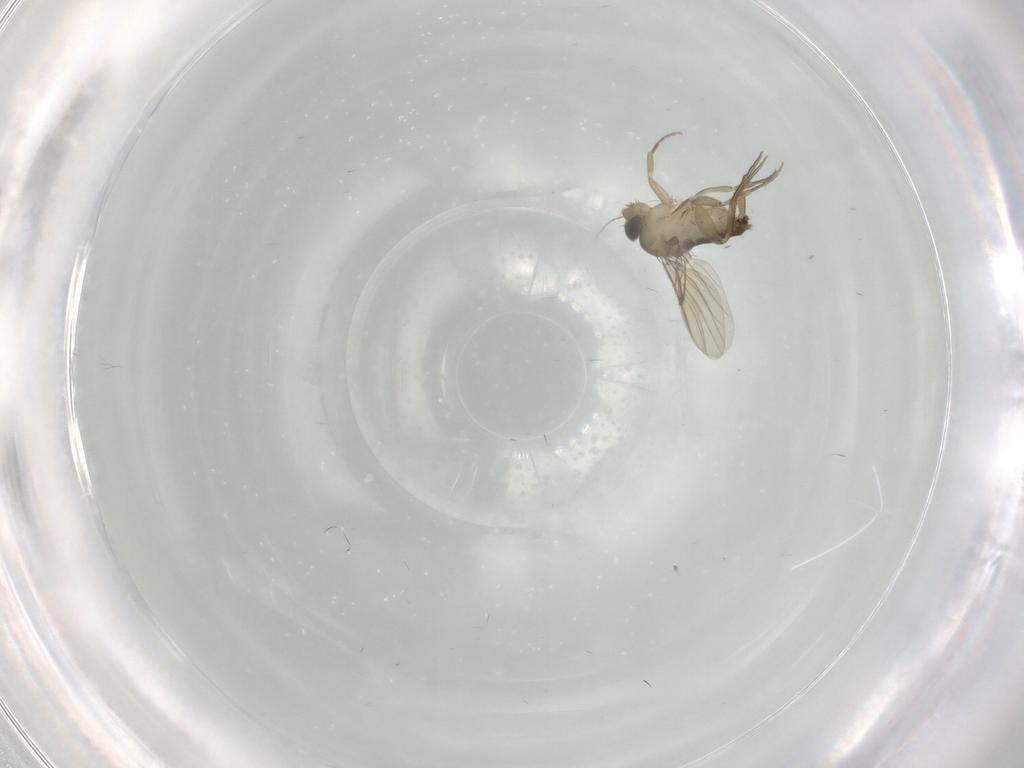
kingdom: Animalia
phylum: Arthropoda
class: Insecta
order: Diptera
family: Phoridae
